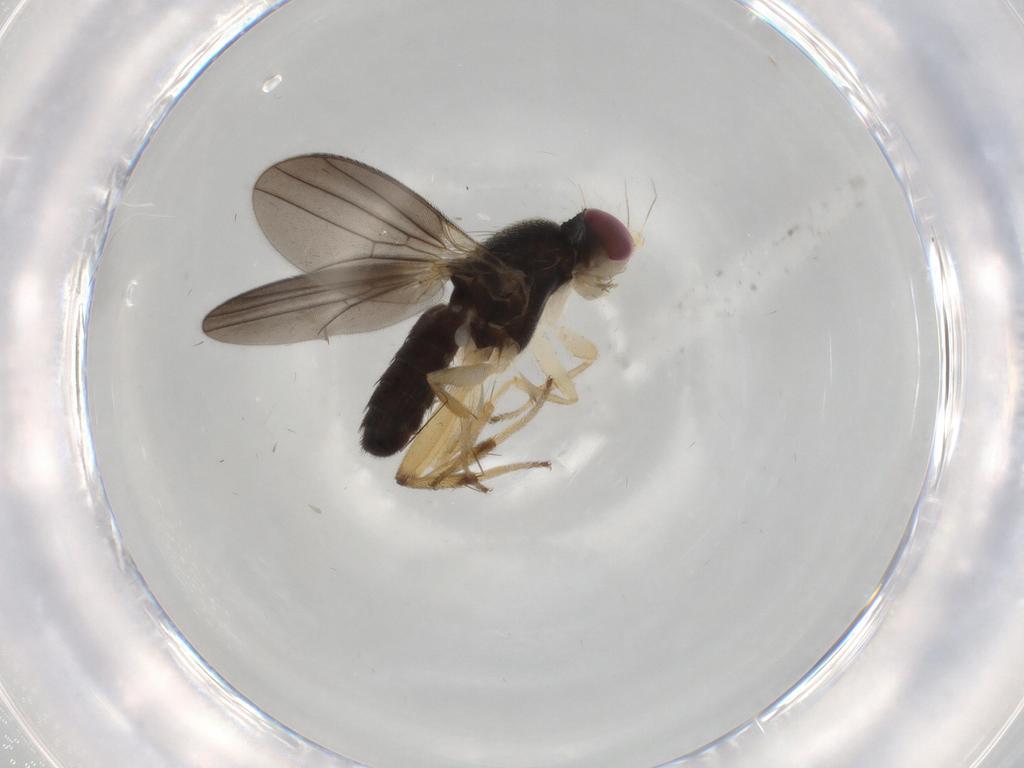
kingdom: Animalia
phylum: Arthropoda
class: Insecta
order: Diptera
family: Clusiidae
